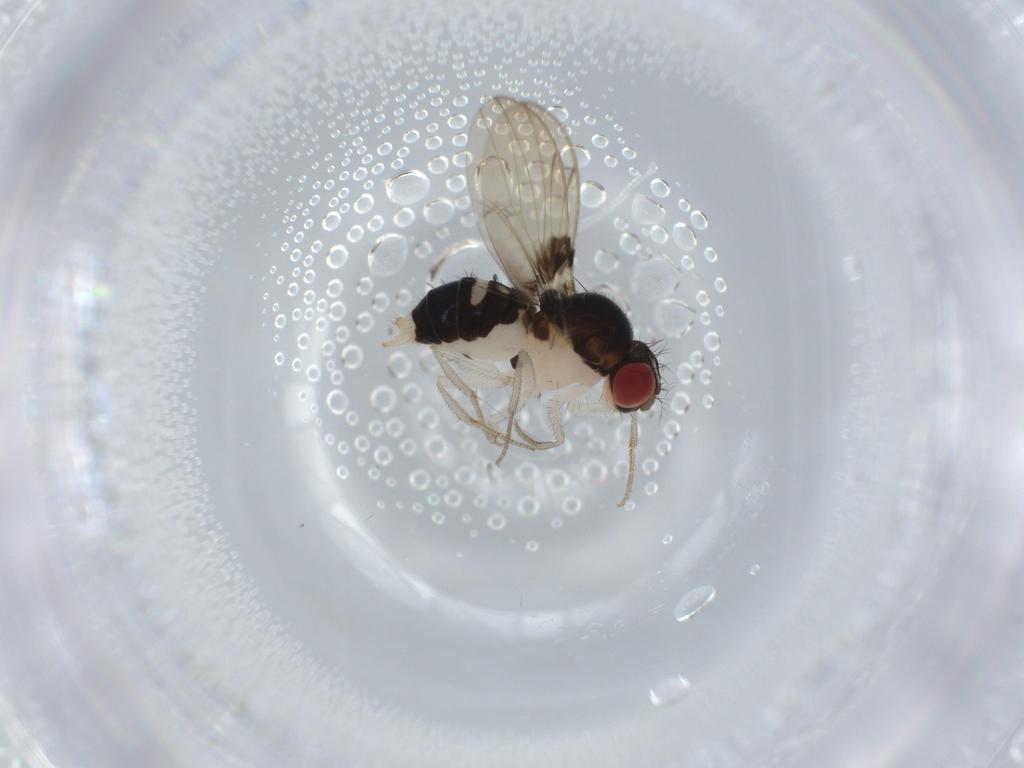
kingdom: Animalia
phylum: Arthropoda
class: Insecta
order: Diptera
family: Drosophilidae
